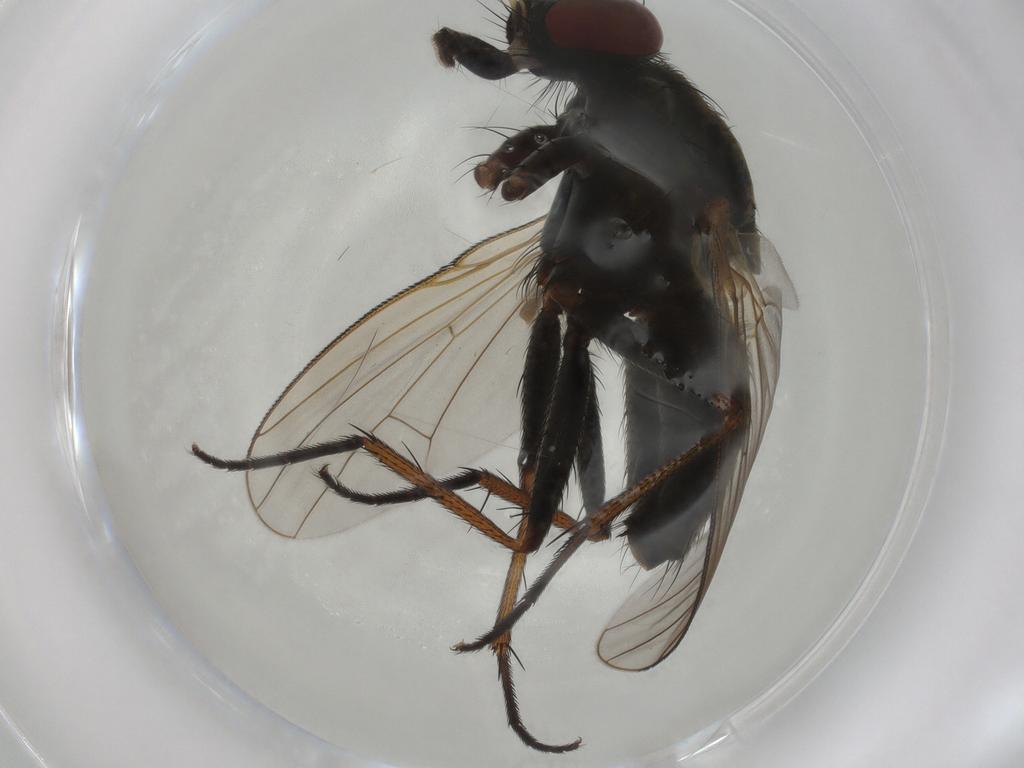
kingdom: Animalia
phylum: Arthropoda
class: Insecta
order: Diptera
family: Muscidae
